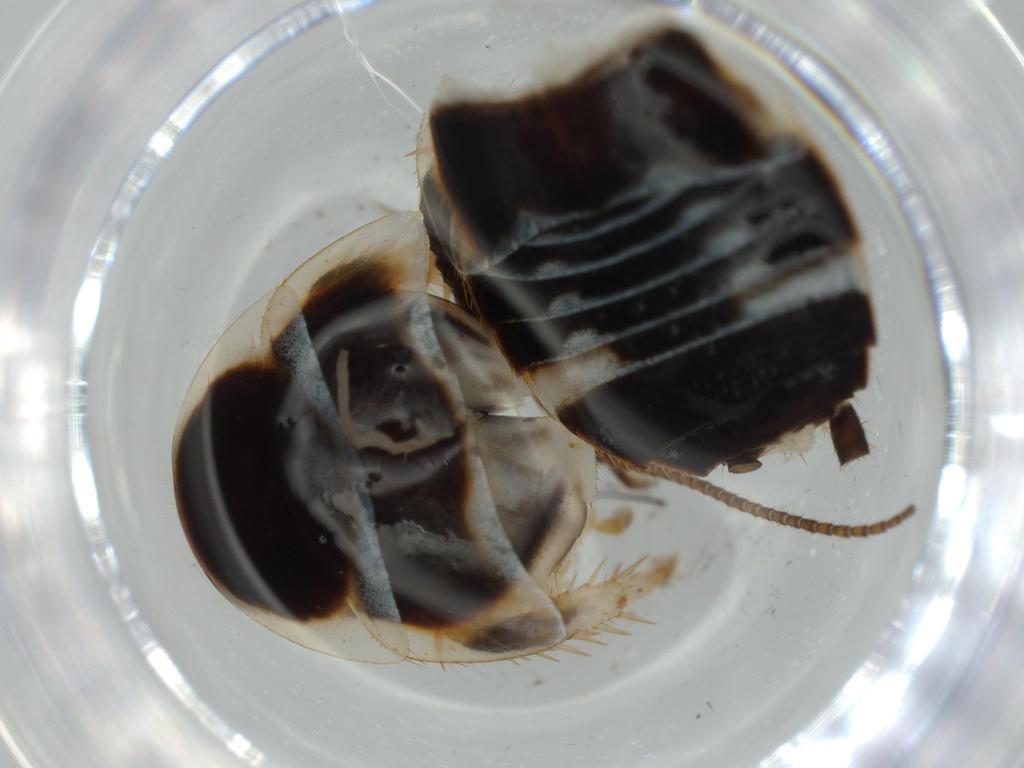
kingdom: Animalia
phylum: Arthropoda
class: Insecta
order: Blattodea
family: Ectobiidae
